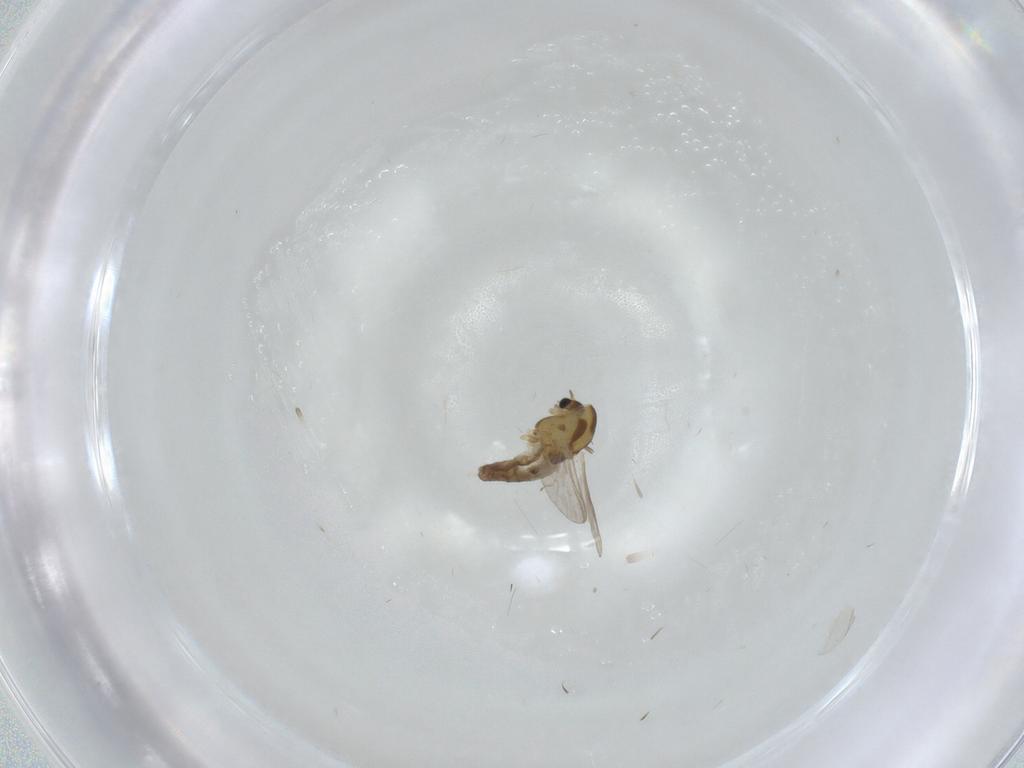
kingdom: Animalia
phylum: Arthropoda
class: Insecta
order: Diptera
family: Chironomidae
